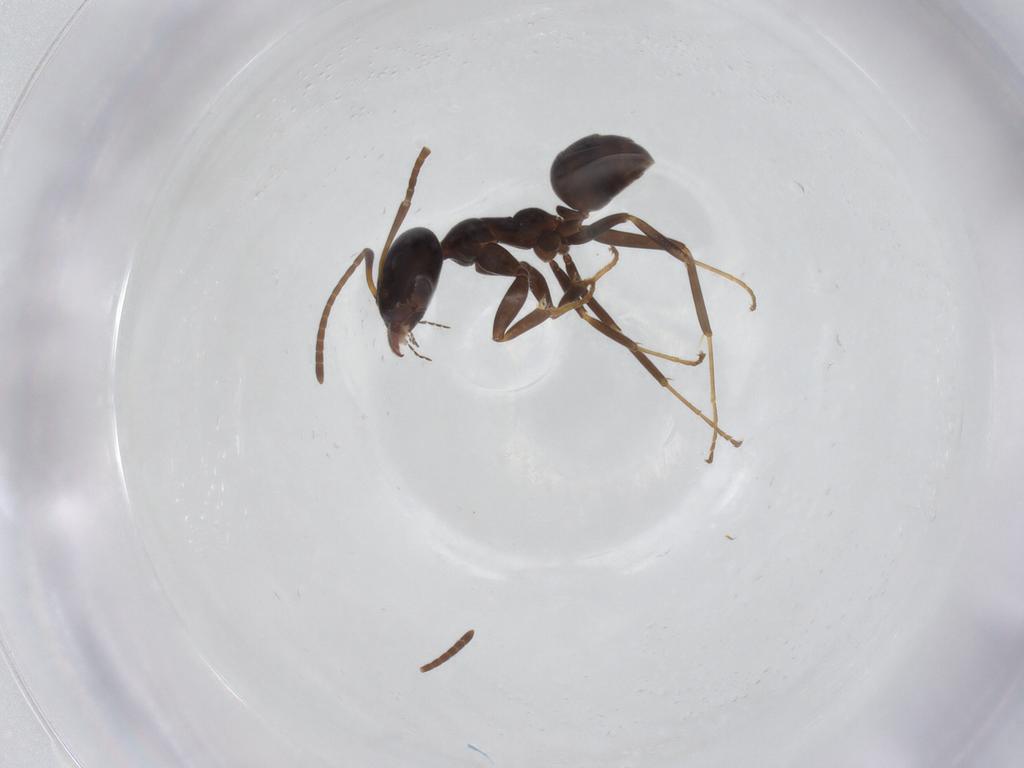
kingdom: Animalia
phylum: Arthropoda
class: Insecta
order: Hymenoptera
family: Formicidae
